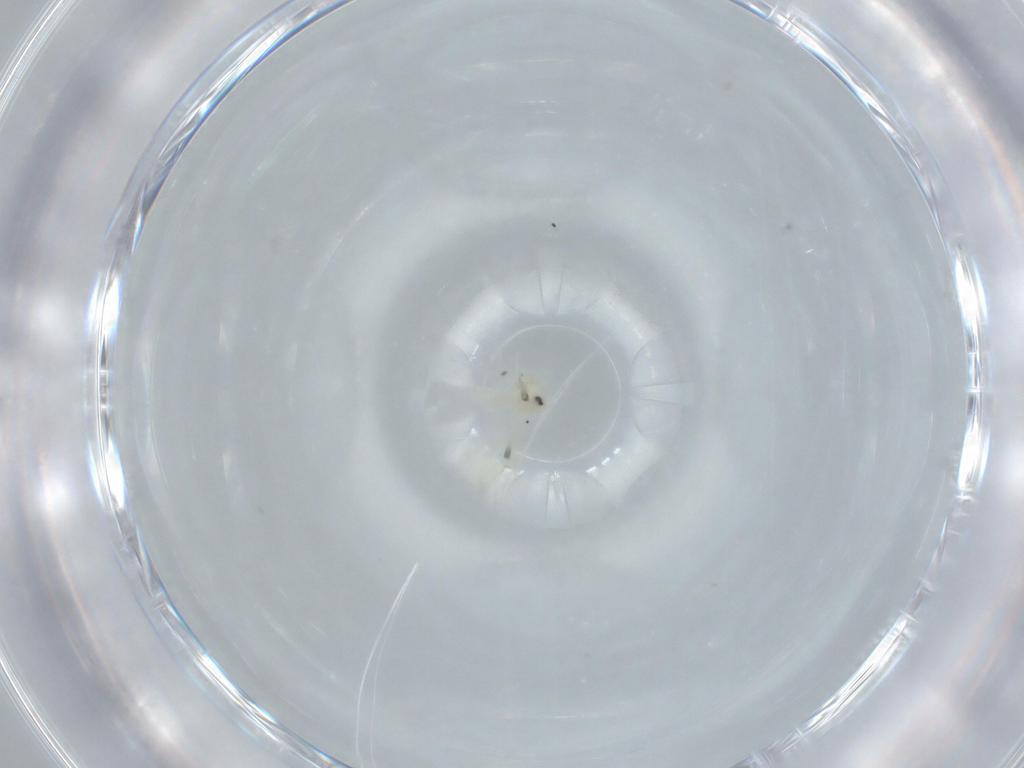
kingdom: Animalia
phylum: Arthropoda
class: Insecta
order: Hemiptera
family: Aleyrodidae
